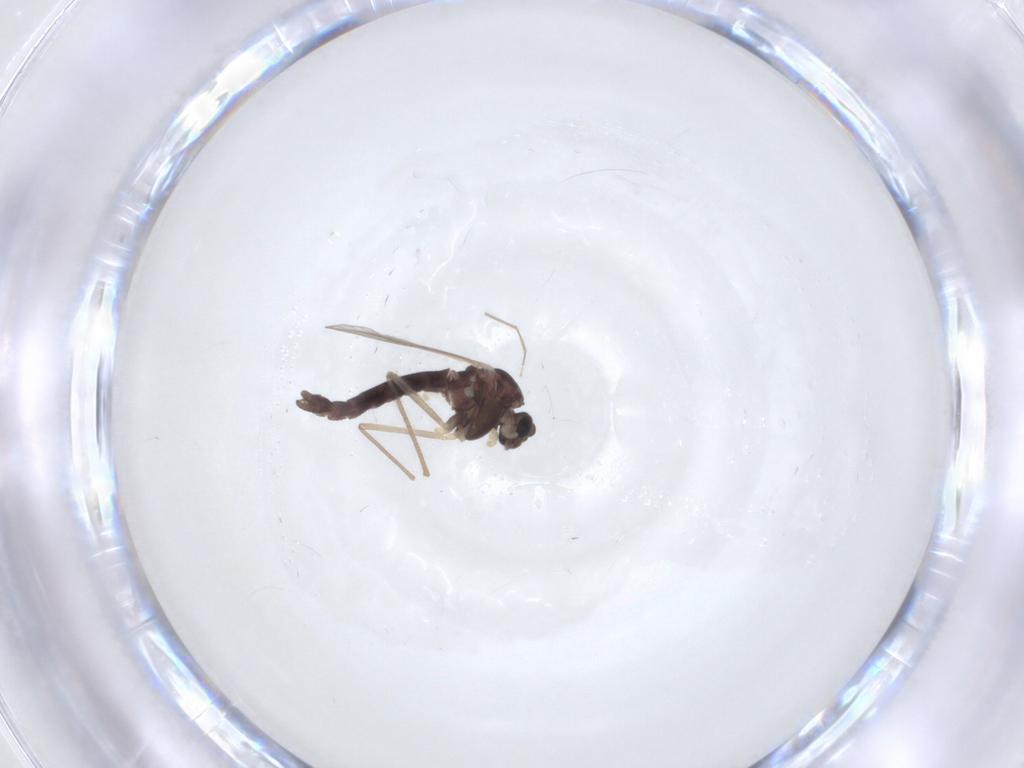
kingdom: Animalia
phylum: Arthropoda
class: Insecta
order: Diptera
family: Chironomidae
